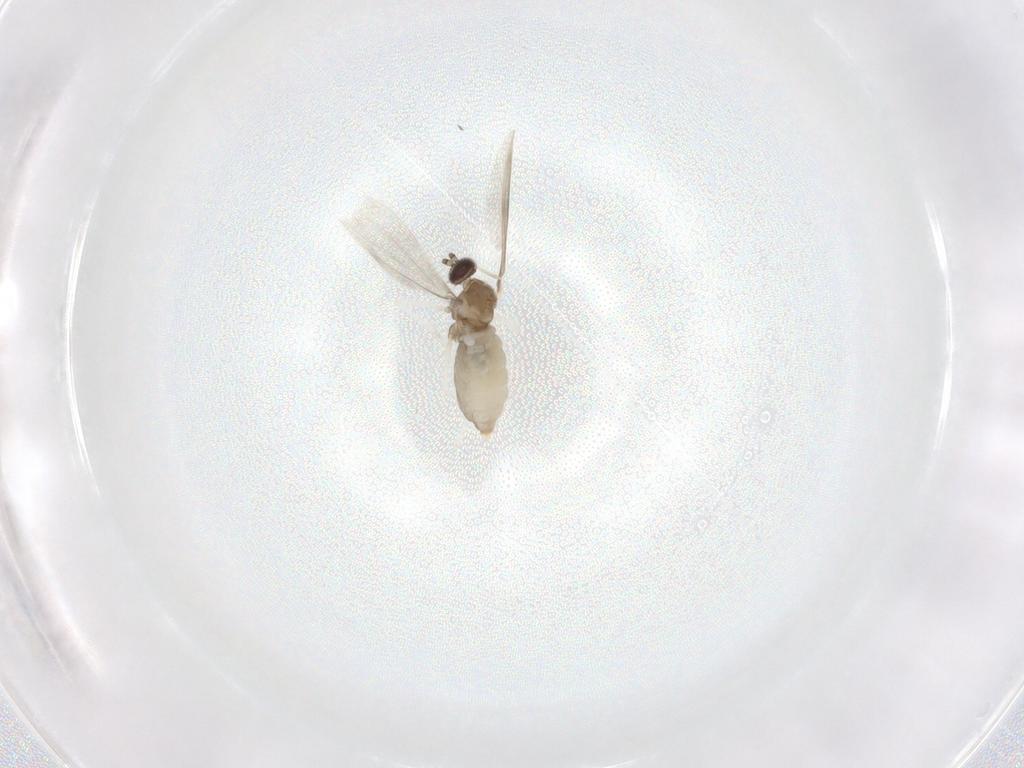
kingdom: Animalia
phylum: Arthropoda
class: Insecta
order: Diptera
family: Cecidomyiidae
